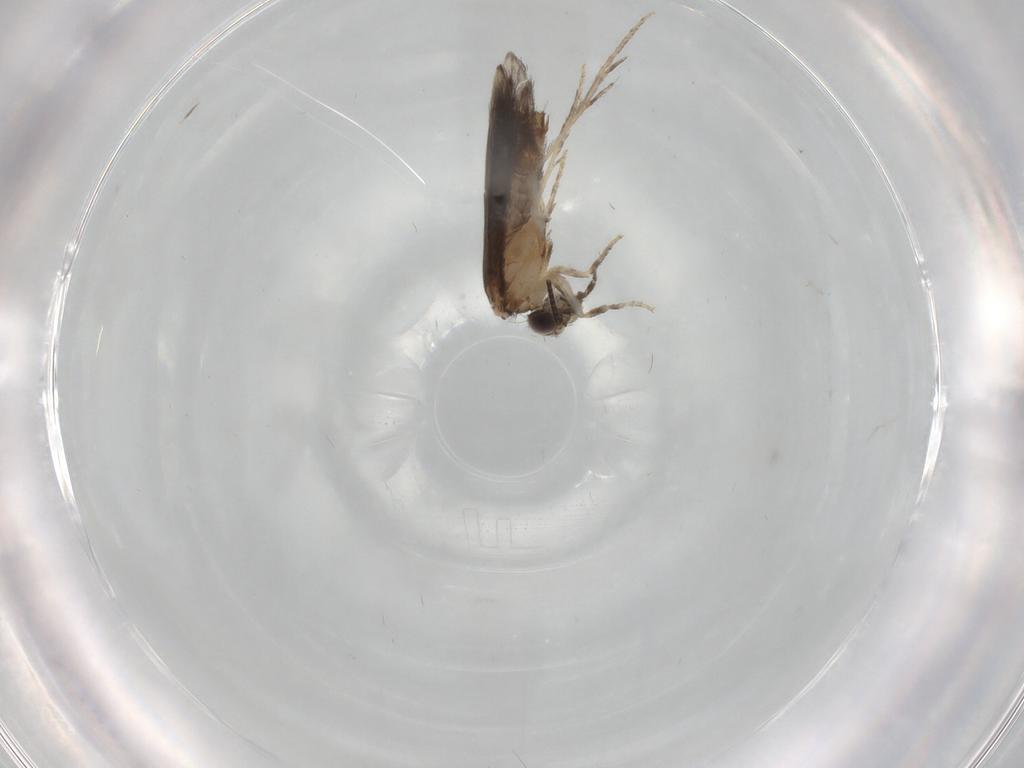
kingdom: Animalia
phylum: Arthropoda
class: Insecta
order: Trichoptera
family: Hydroptilidae
